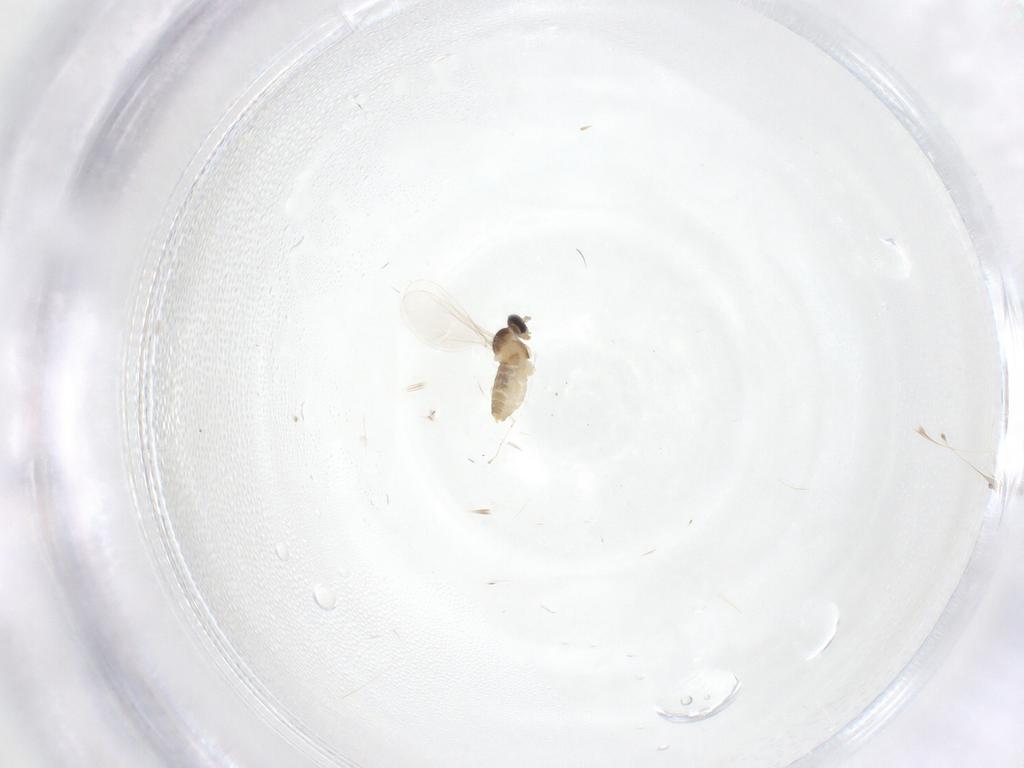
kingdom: Animalia
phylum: Arthropoda
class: Insecta
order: Diptera
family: Cecidomyiidae
